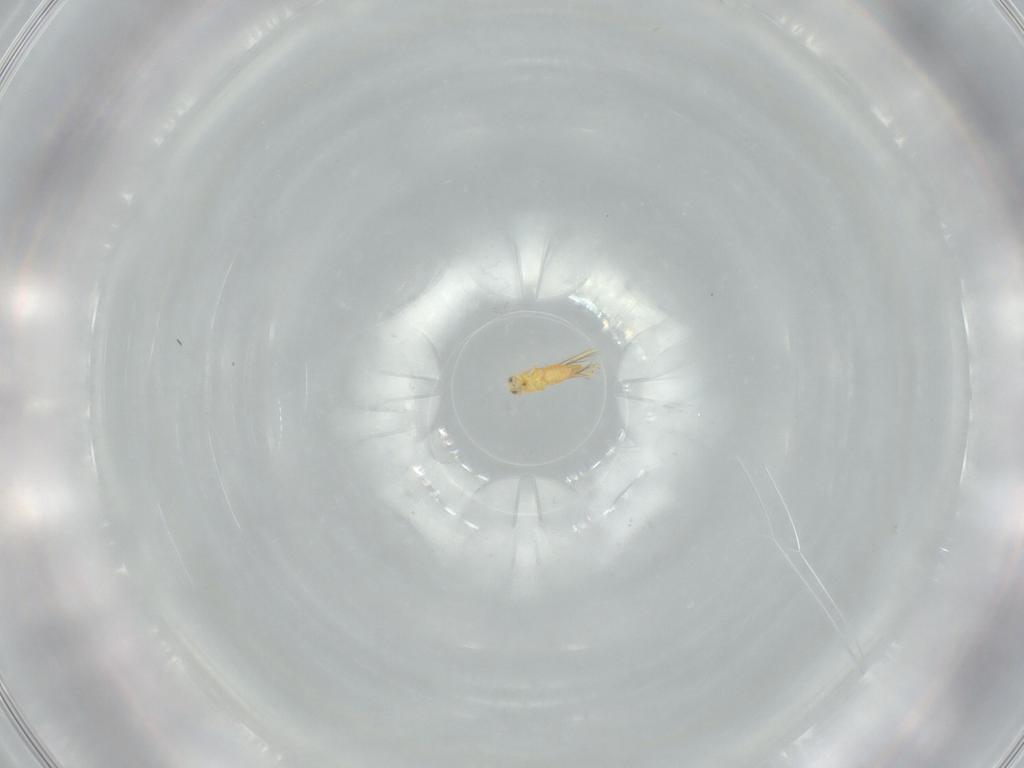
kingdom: Animalia
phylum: Arthropoda
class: Insecta
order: Thysanoptera
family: Thripidae
